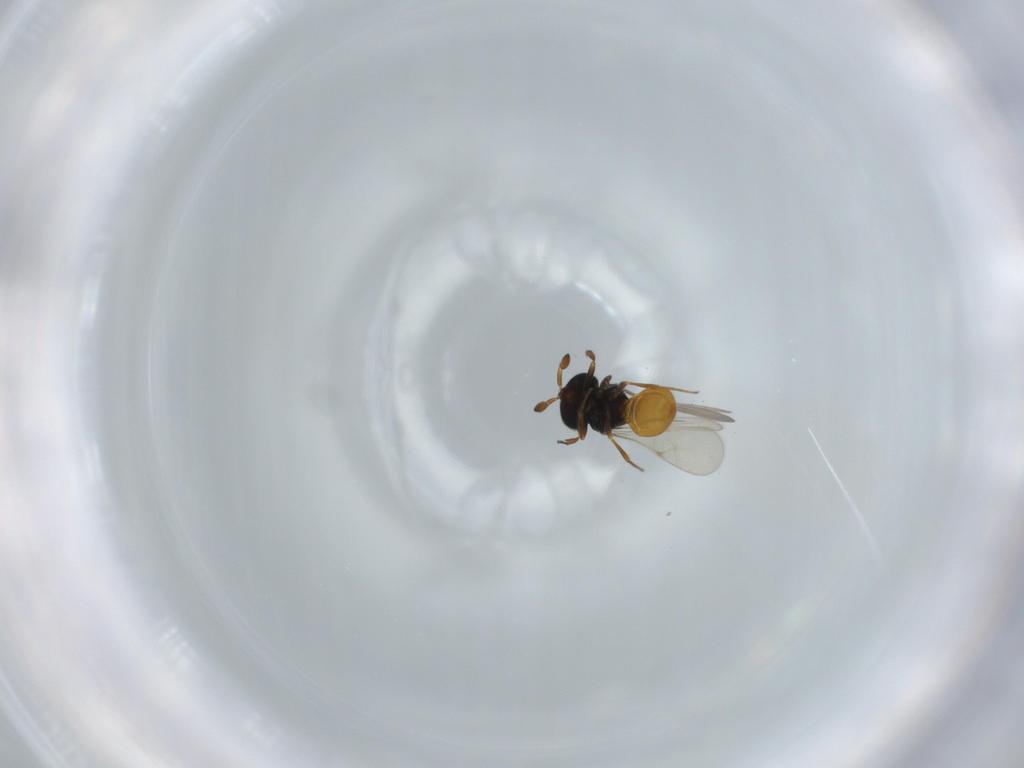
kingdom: Animalia
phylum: Arthropoda
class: Insecta
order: Hymenoptera
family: Scelionidae
